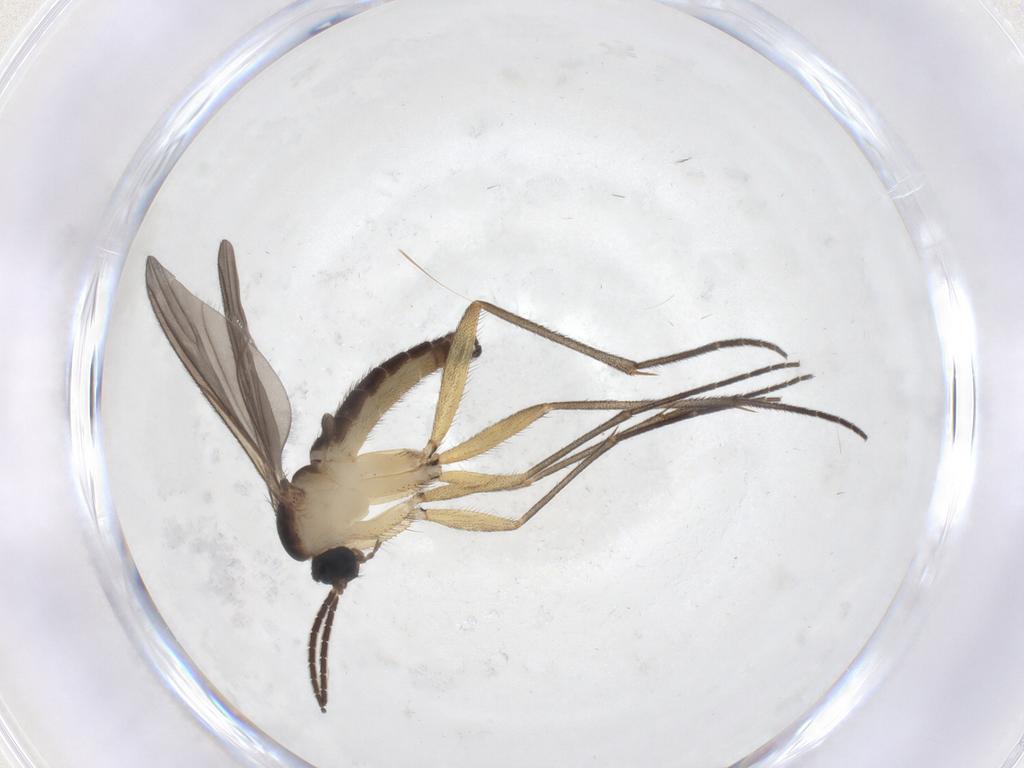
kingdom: Animalia
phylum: Arthropoda
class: Insecta
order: Diptera
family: Sciaridae
